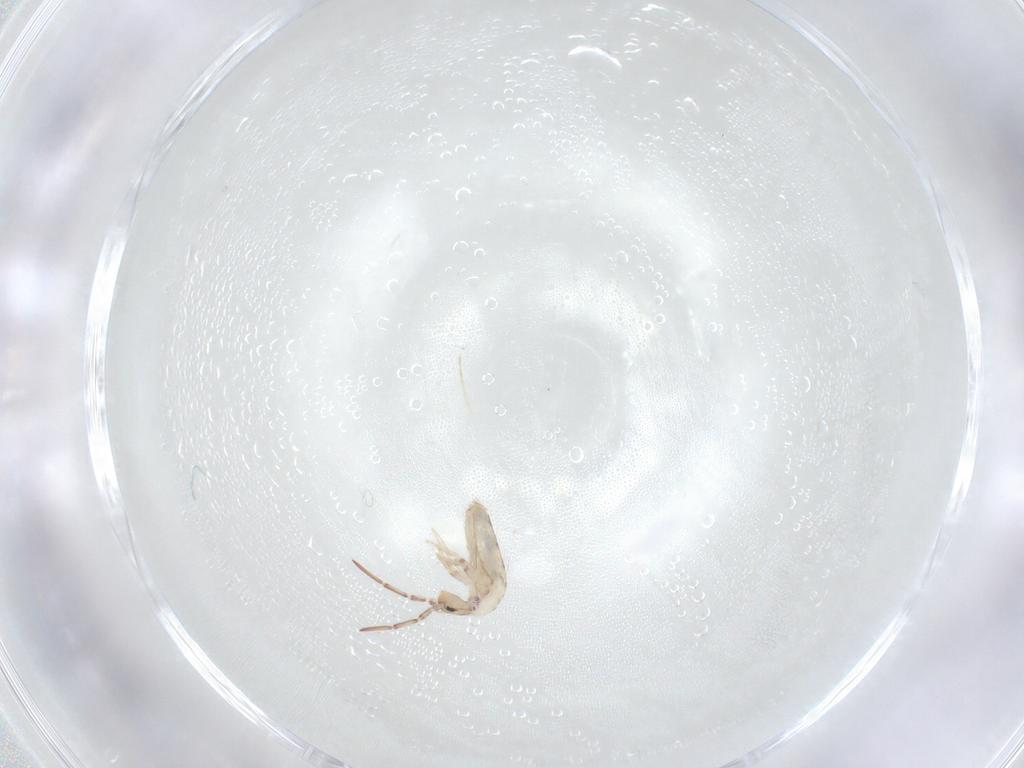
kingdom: Animalia
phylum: Arthropoda
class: Collembola
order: Entomobryomorpha
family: Entomobryidae
